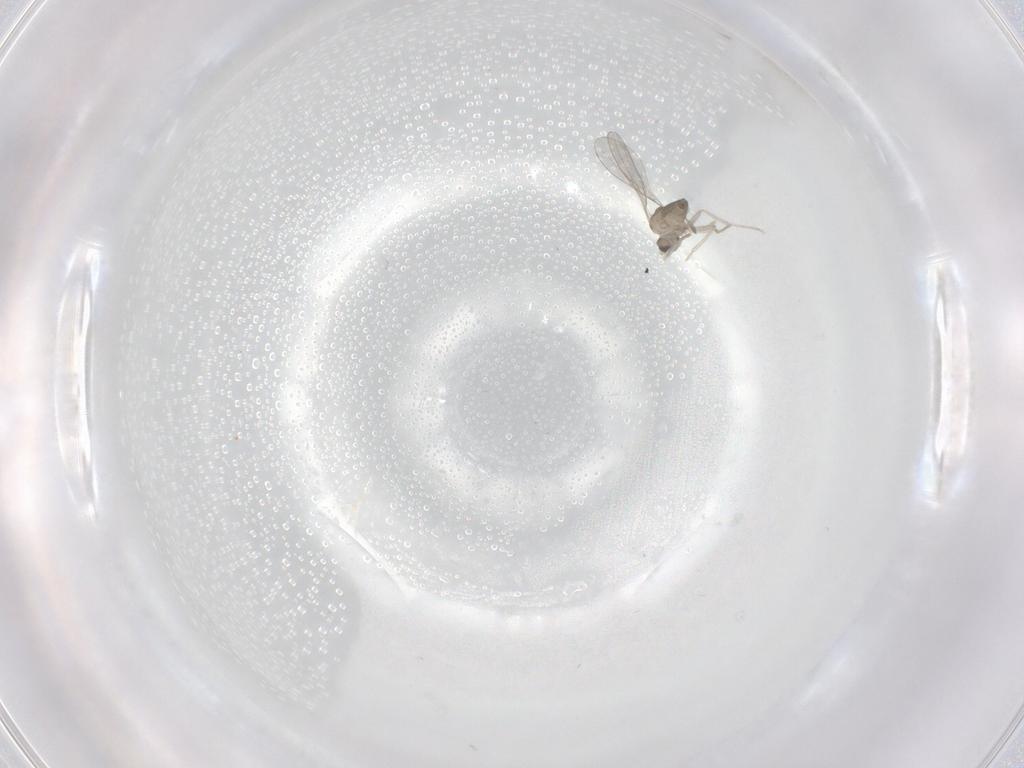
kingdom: Animalia
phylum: Arthropoda
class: Insecta
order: Diptera
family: Cecidomyiidae
